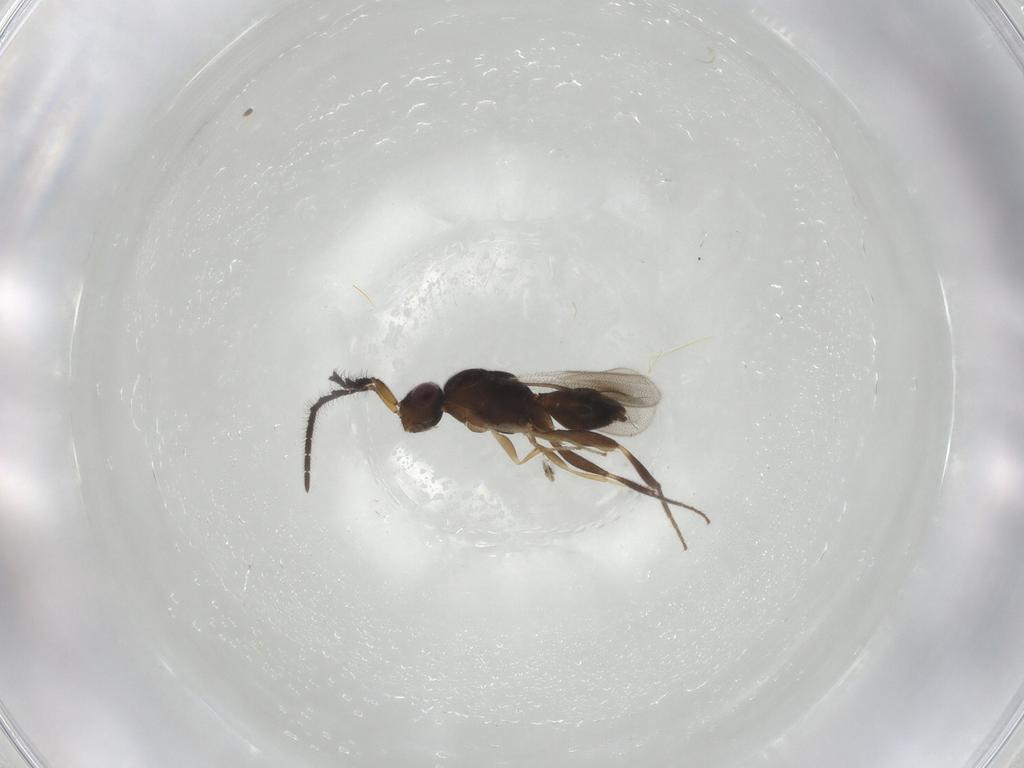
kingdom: Animalia
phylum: Arthropoda
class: Insecta
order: Hymenoptera
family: Megaspilidae
